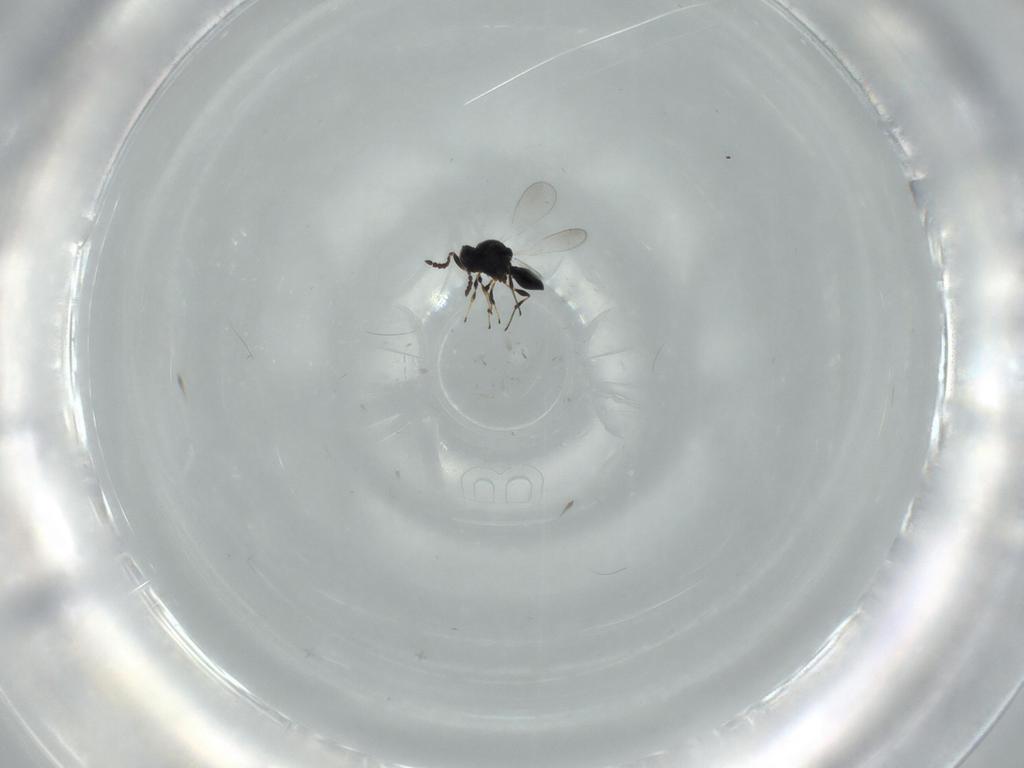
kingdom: Animalia
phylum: Arthropoda
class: Insecta
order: Hymenoptera
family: Platygastridae
